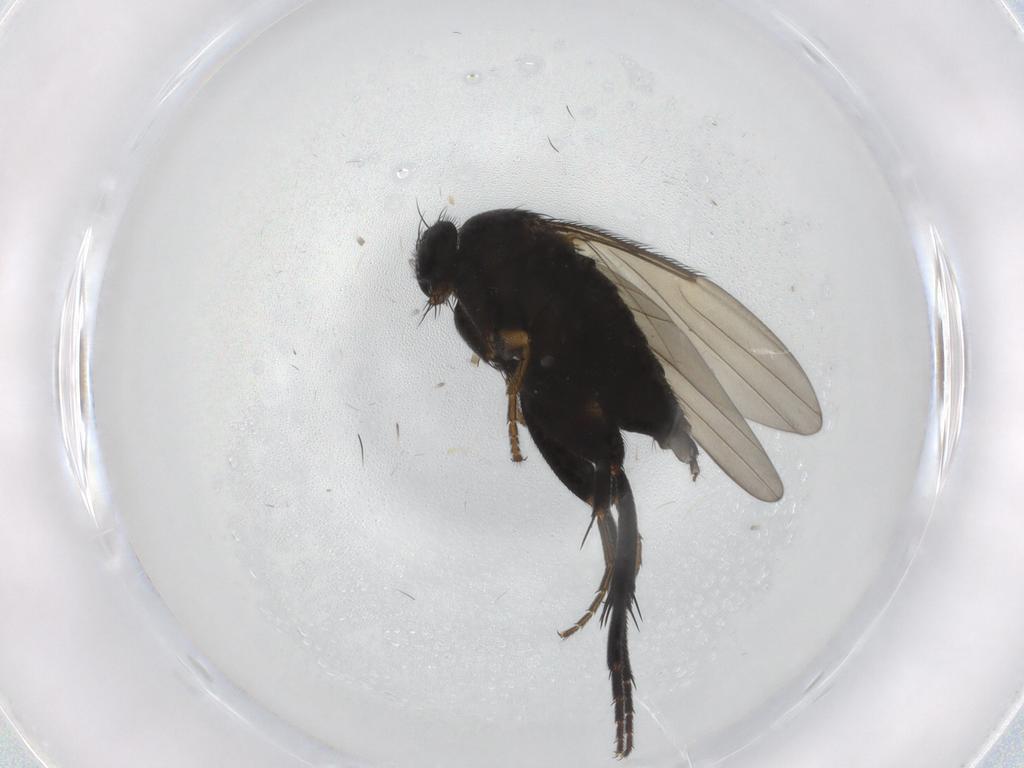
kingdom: Animalia
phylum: Arthropoda
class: Insecta
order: Diptera
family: Phoridae
